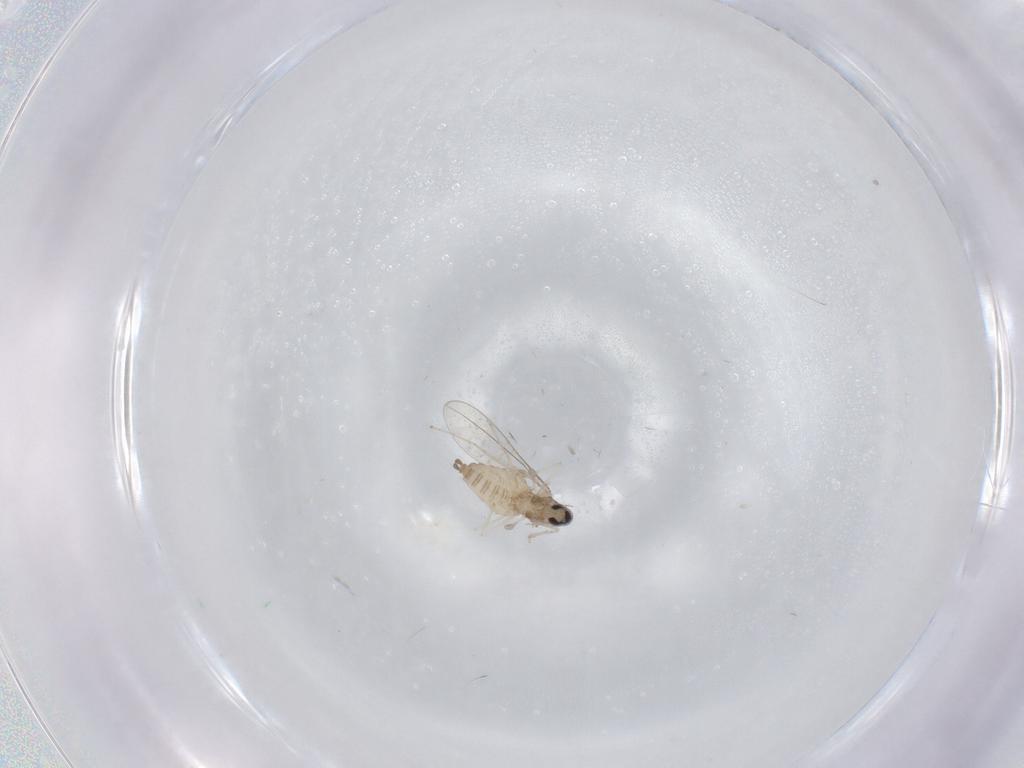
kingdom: Animalia
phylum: Arthropoda
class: Insecta
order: Diptera
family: Cecidomyiidae
